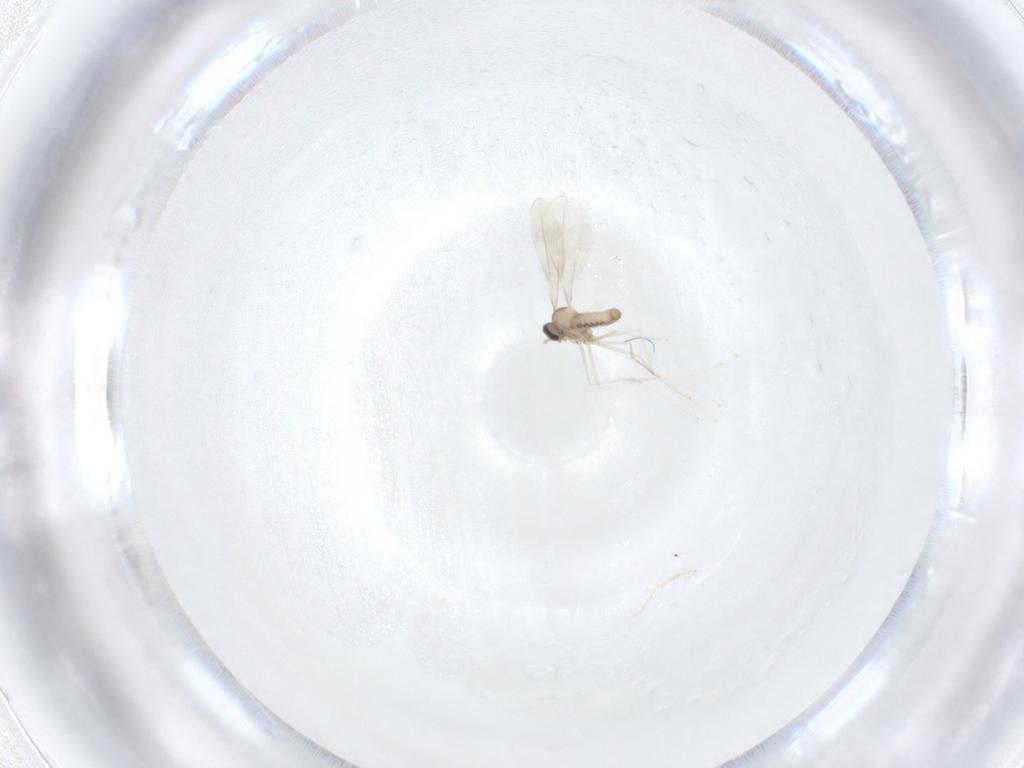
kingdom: Animalia
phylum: Arthropoda
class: Insecta
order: Diptera
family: Cecidomyiidae
